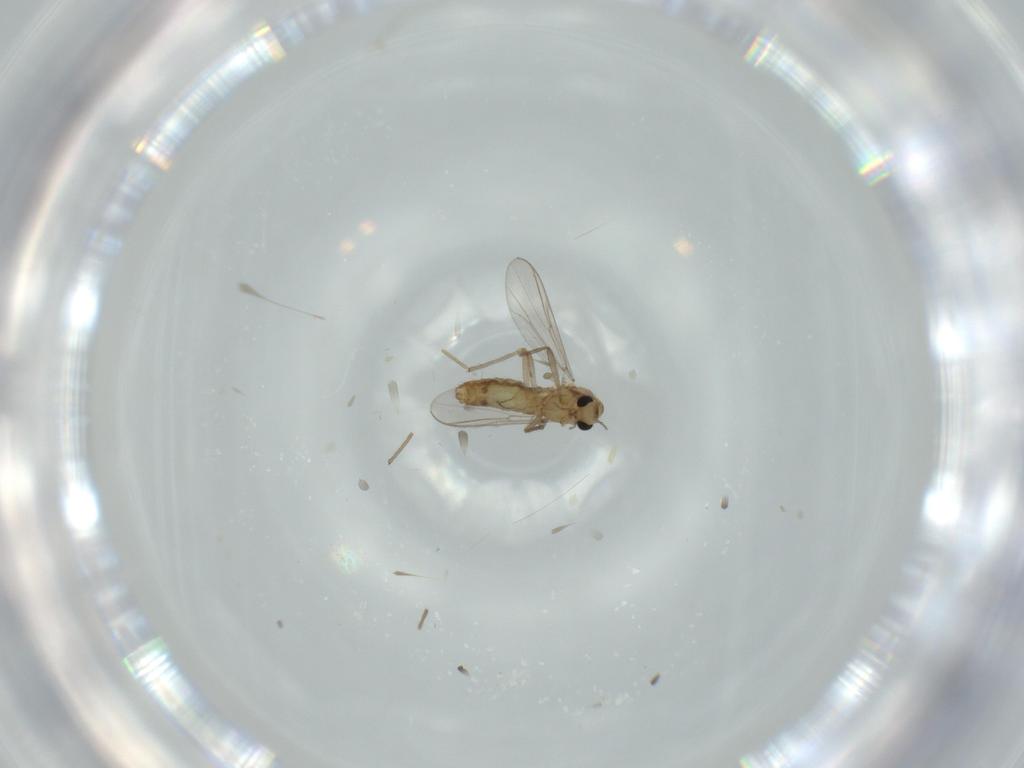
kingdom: Animalia
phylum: Arthropoda
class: Insecta
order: Diptera
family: Chironomidae
